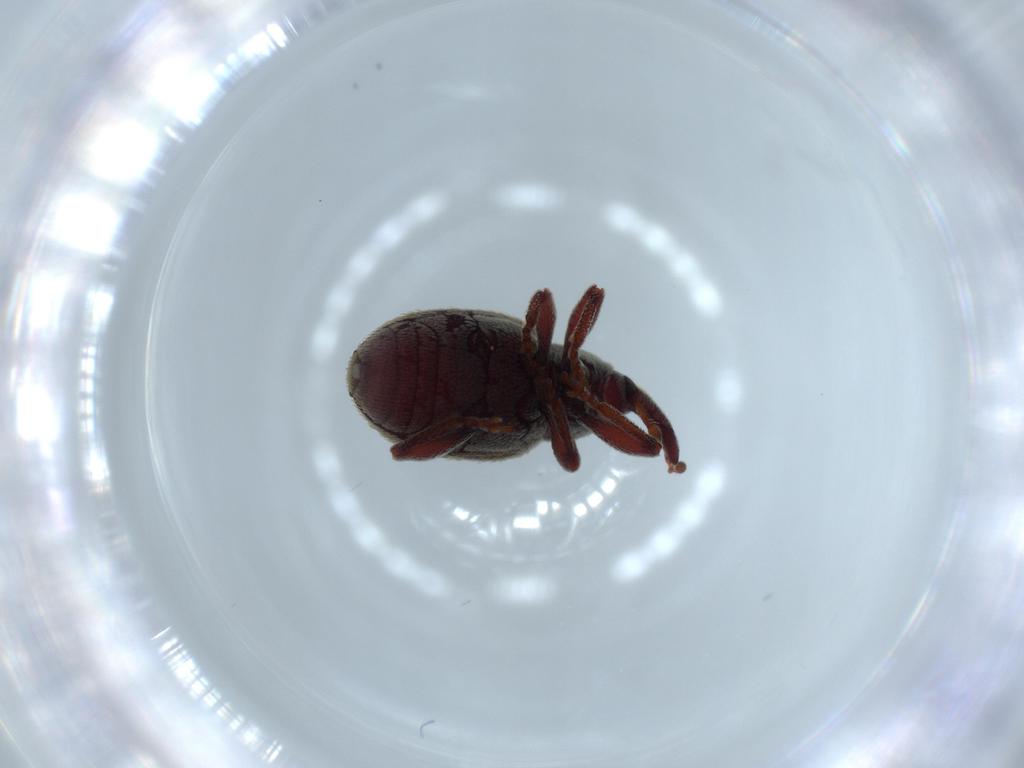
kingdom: Animalia
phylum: Arthropoda
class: Insecta
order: Coleoptera
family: Curculionidae
